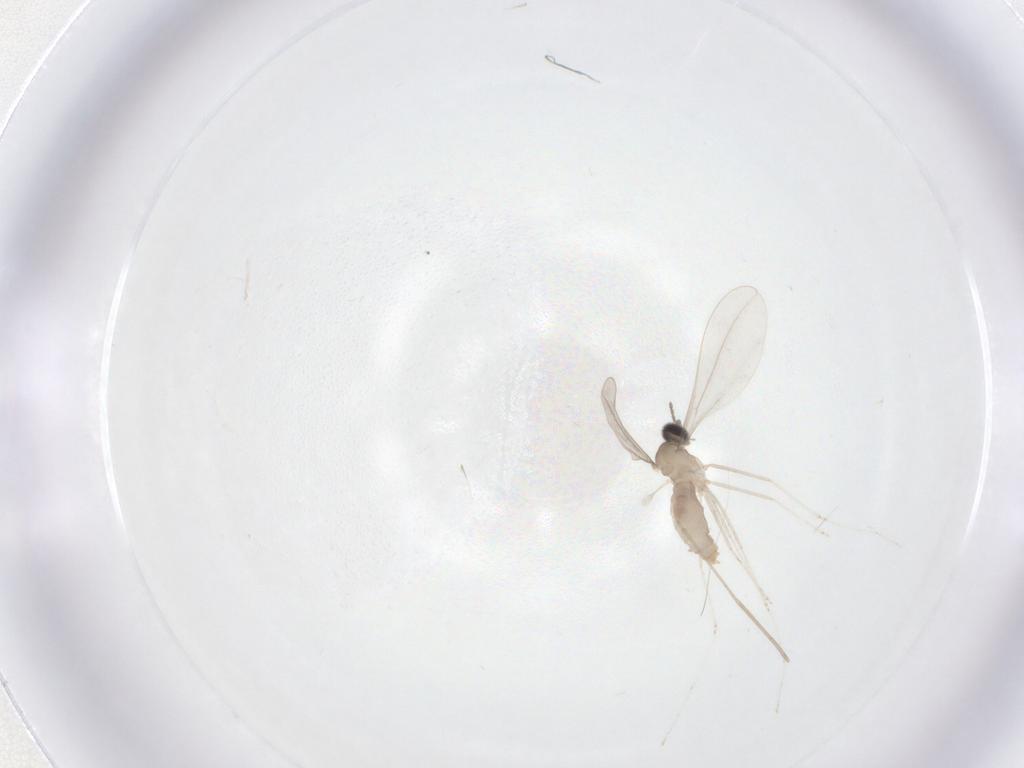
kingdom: Animalia
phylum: Arthropoda
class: Insecta
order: Diptera
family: Cecidomyiidae
